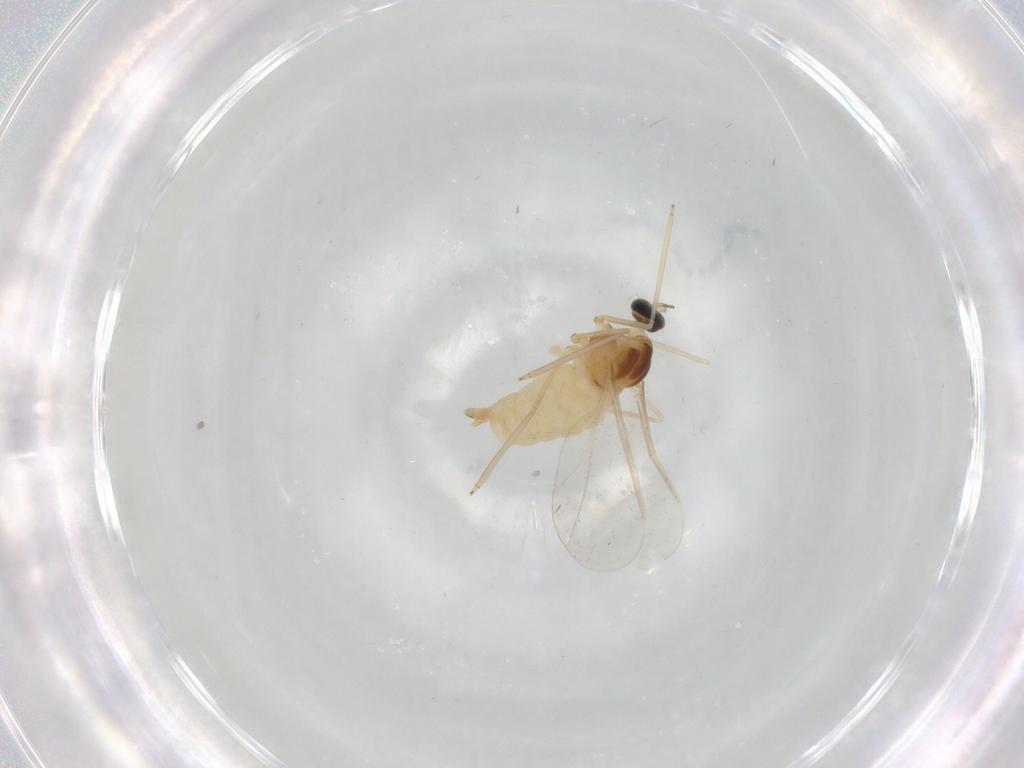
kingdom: Animalia
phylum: Arthropoda
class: Insecta
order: Diptera
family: Cecidomyiidae
